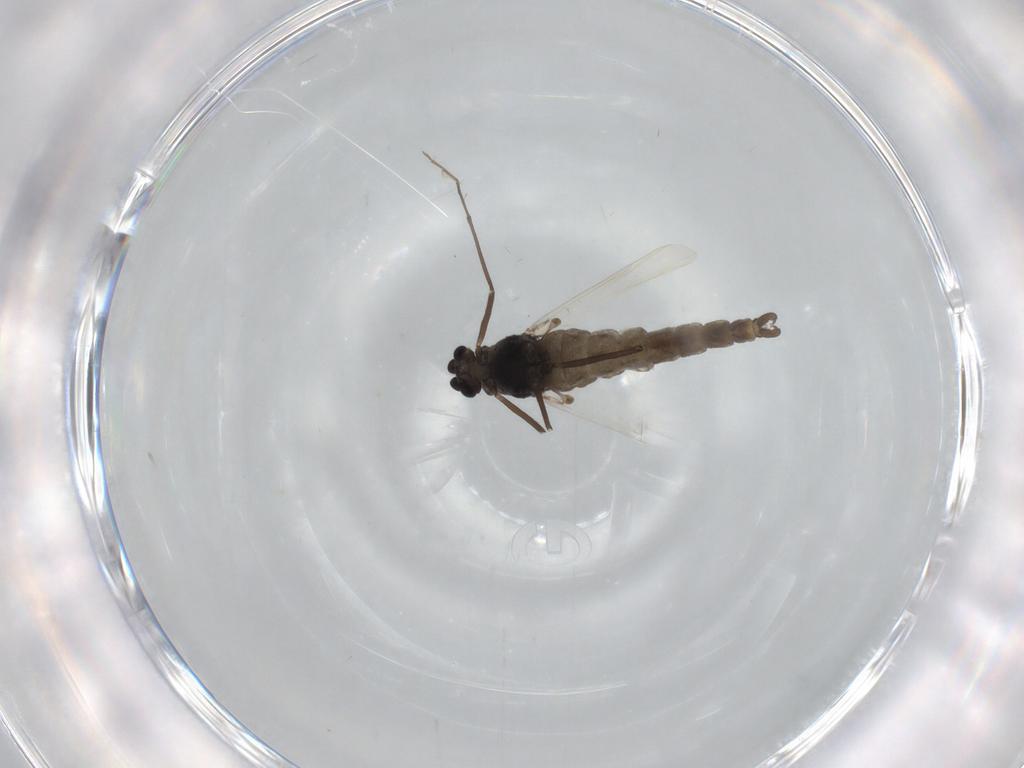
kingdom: Animalia
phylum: Arthropoda
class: Insecta
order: Diptera
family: Chironomidae
